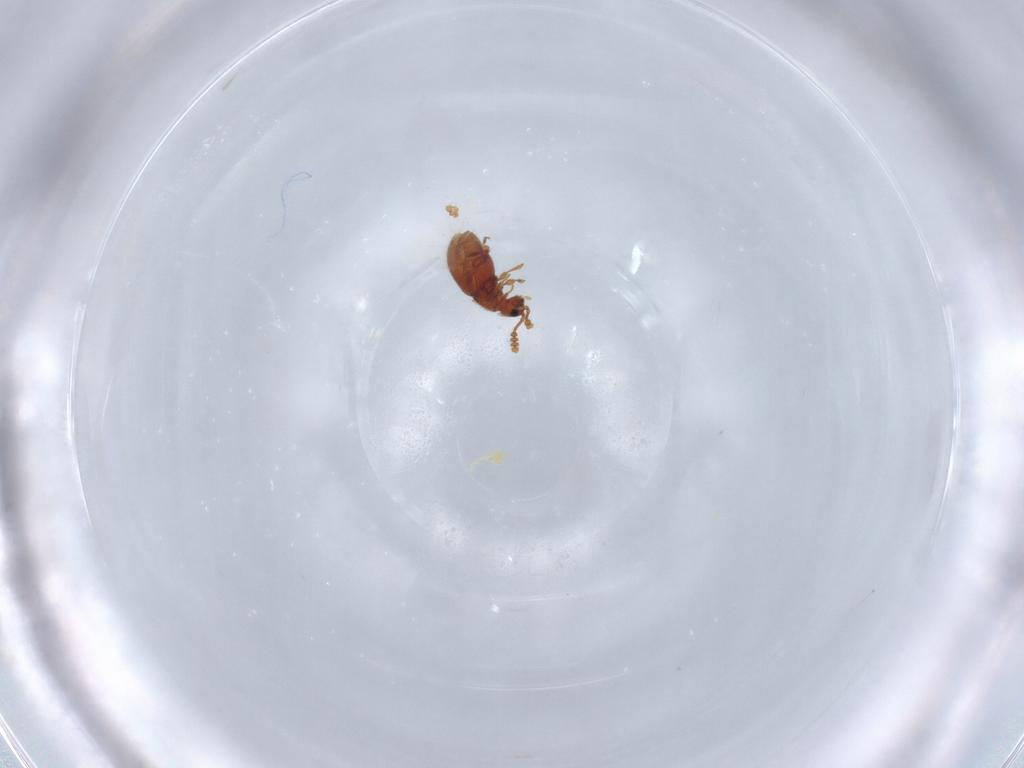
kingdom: Animalia
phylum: Arthropoda
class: Insecta
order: Coleoptera
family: Staphylinidae
